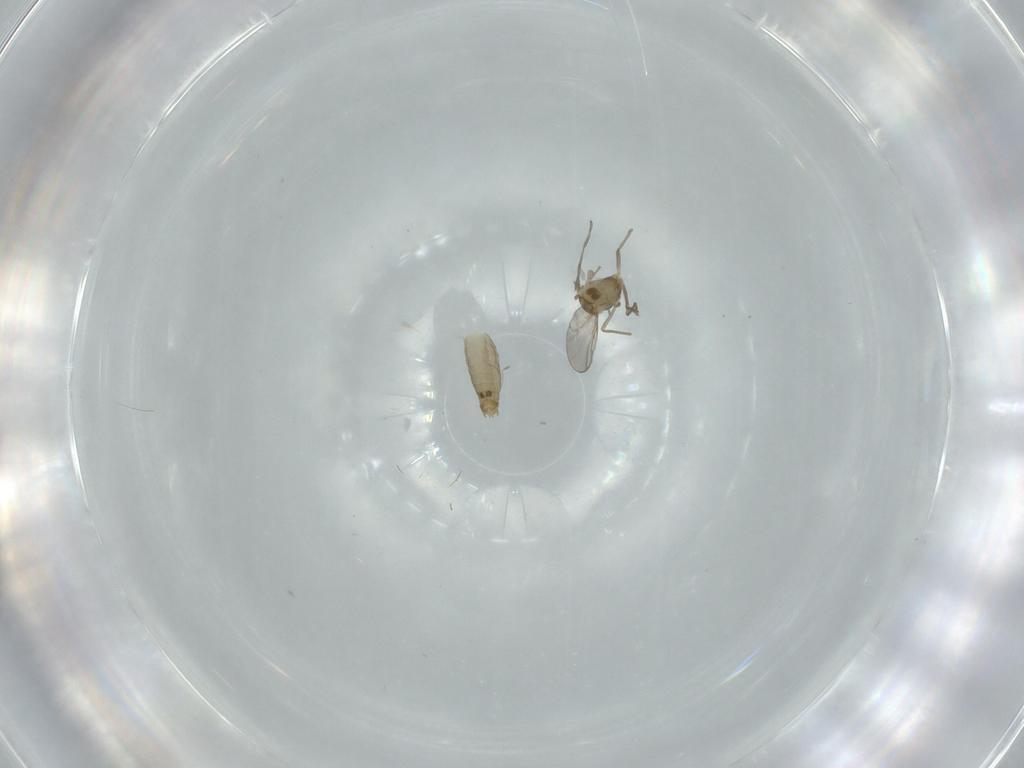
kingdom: Animalia
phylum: Arthropoda
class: Insecta
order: Diptera
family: Chironomidae
